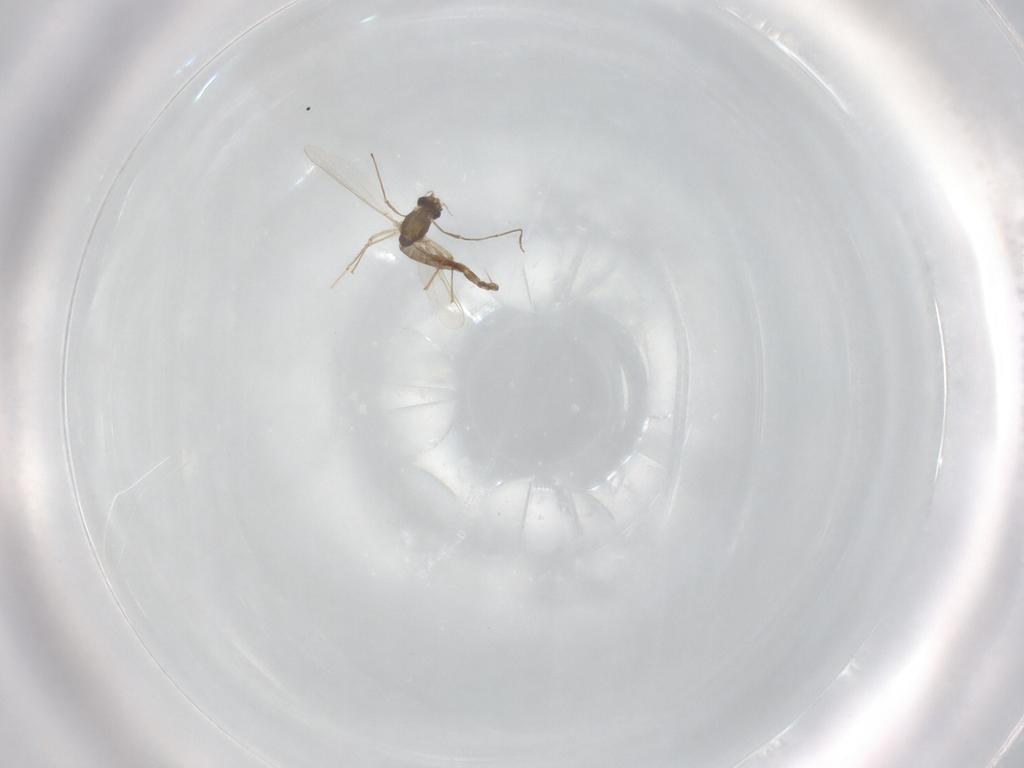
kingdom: Animalia
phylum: Arthropoda
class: Insecta
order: Diptera
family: Chironomidae
